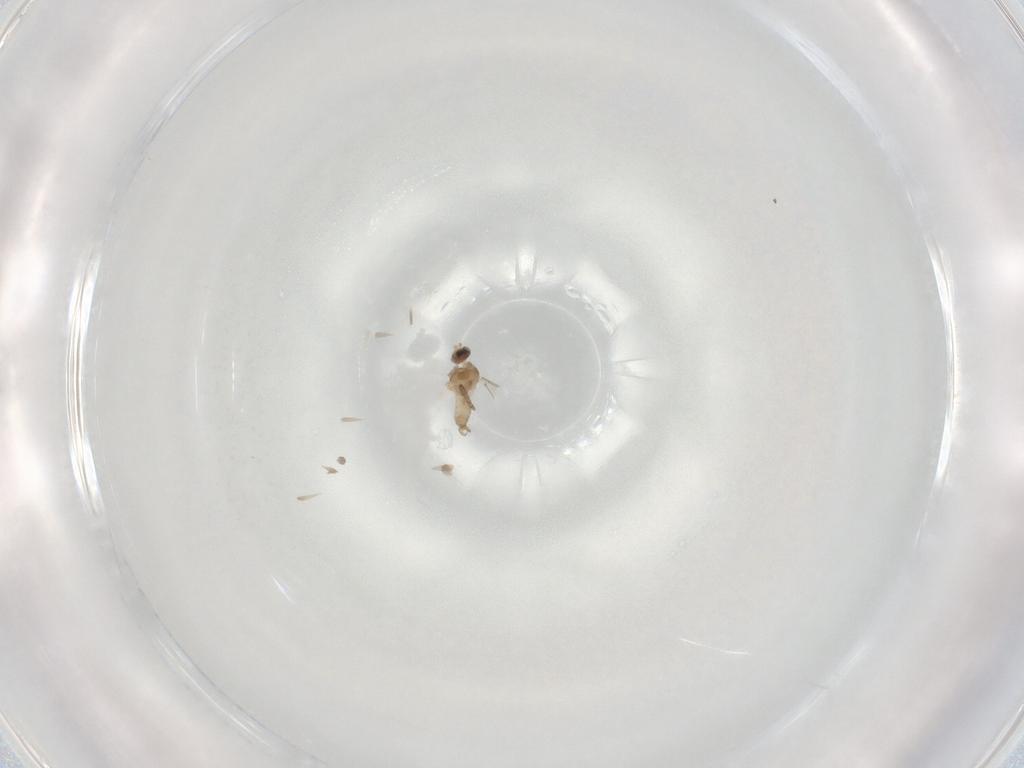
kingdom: Animalia
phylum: Arthropoda
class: Insecta
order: Diptera
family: Cecidomyiidae
